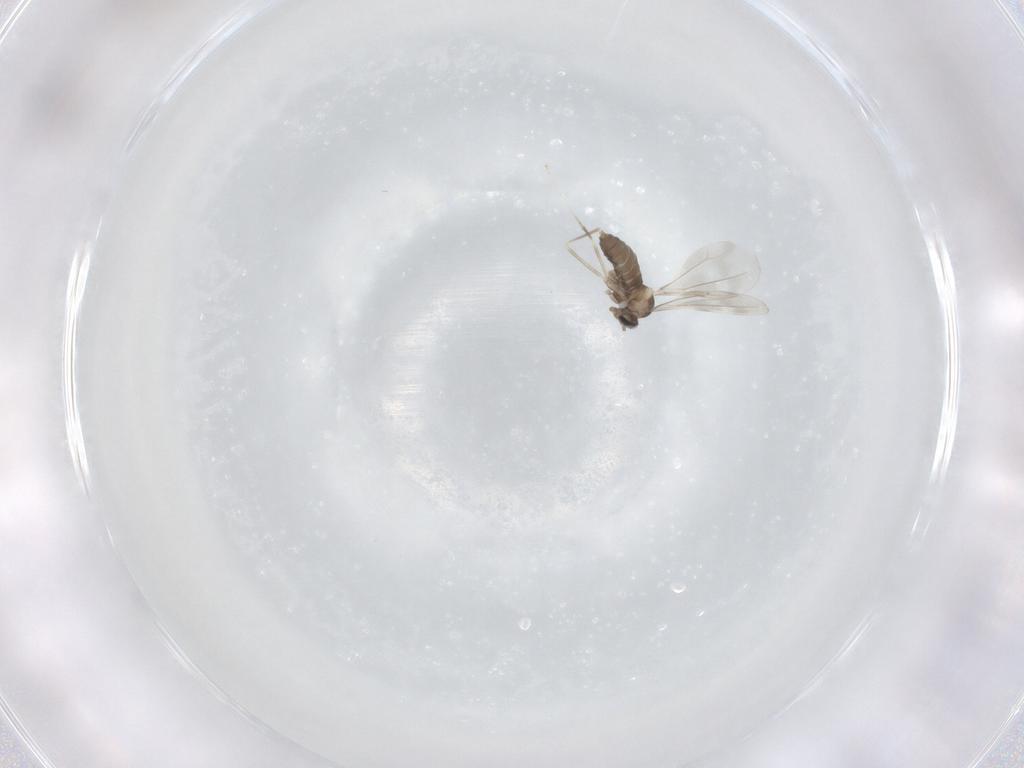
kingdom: Animalia
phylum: Arthropoda
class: Insecta
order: Diptera
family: Cecidomyiidae
